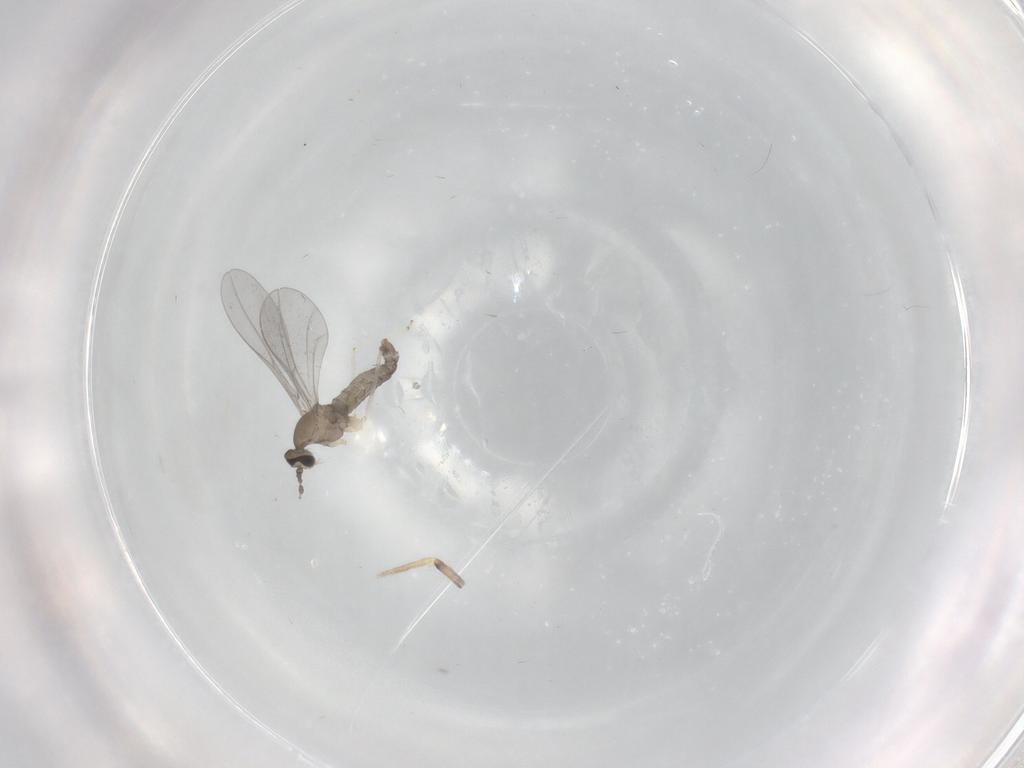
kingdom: Animalia
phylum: Arthropoda
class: Insecta
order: Diptera
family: Cecidomyiidae
